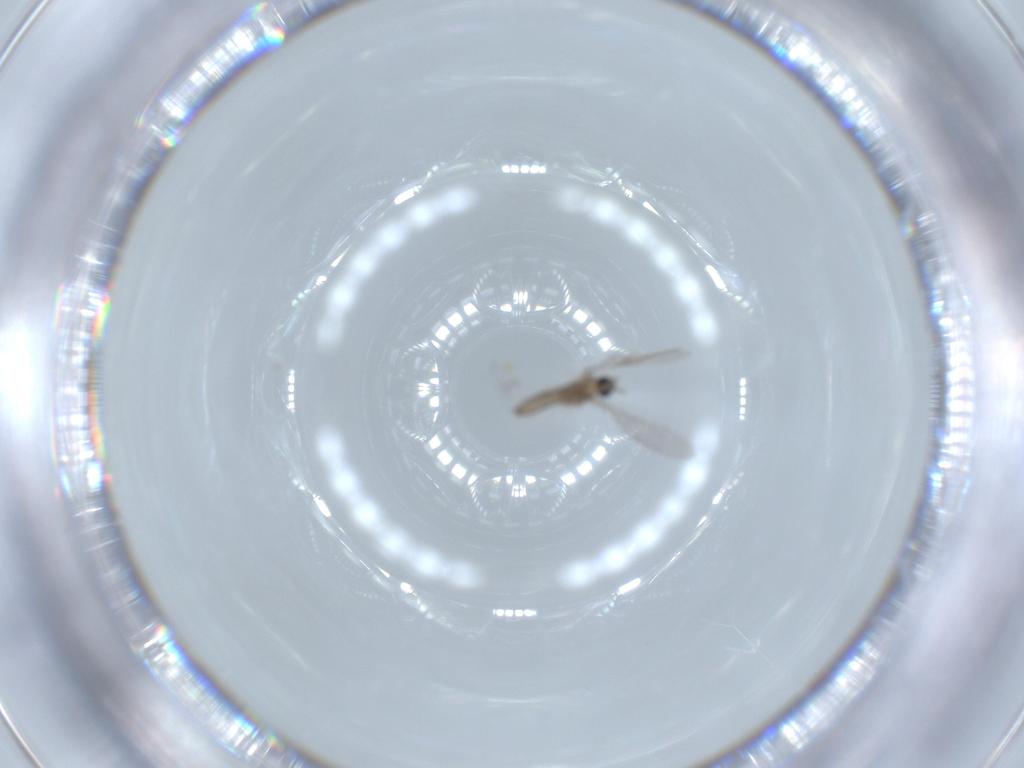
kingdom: Animalia
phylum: Arthropoda
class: Insecta
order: Diptera
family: Cecidomyiidae
